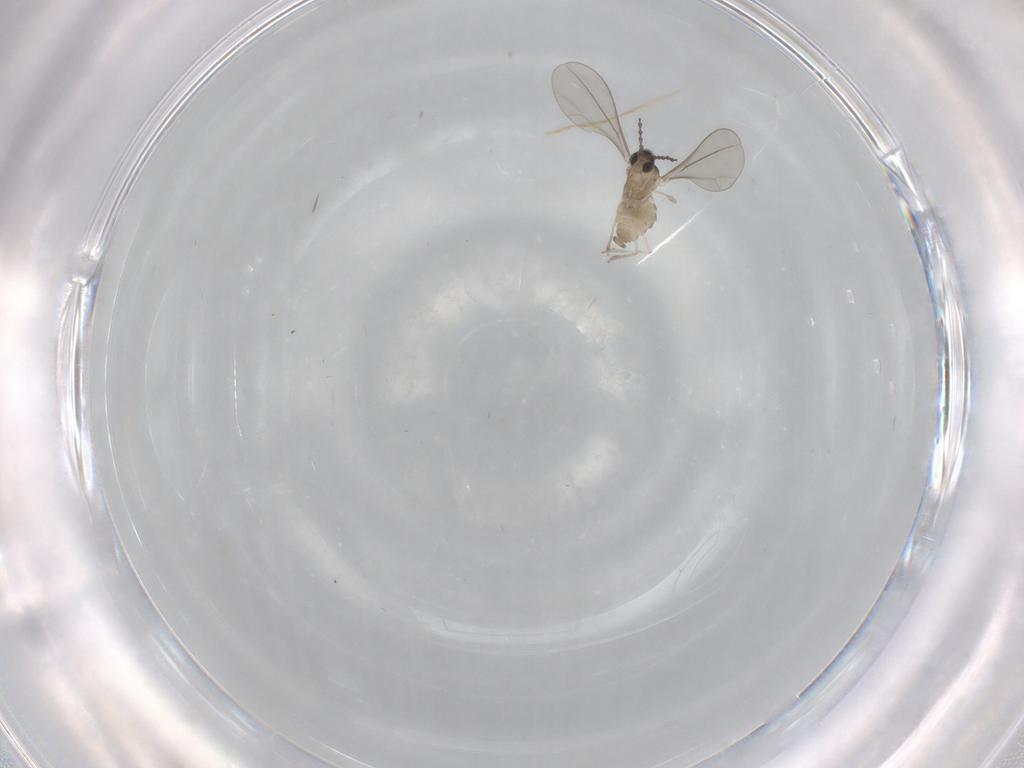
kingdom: Animalia
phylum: Arthropoda
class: Insecta
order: Diptera
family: Cecidomyiidae
